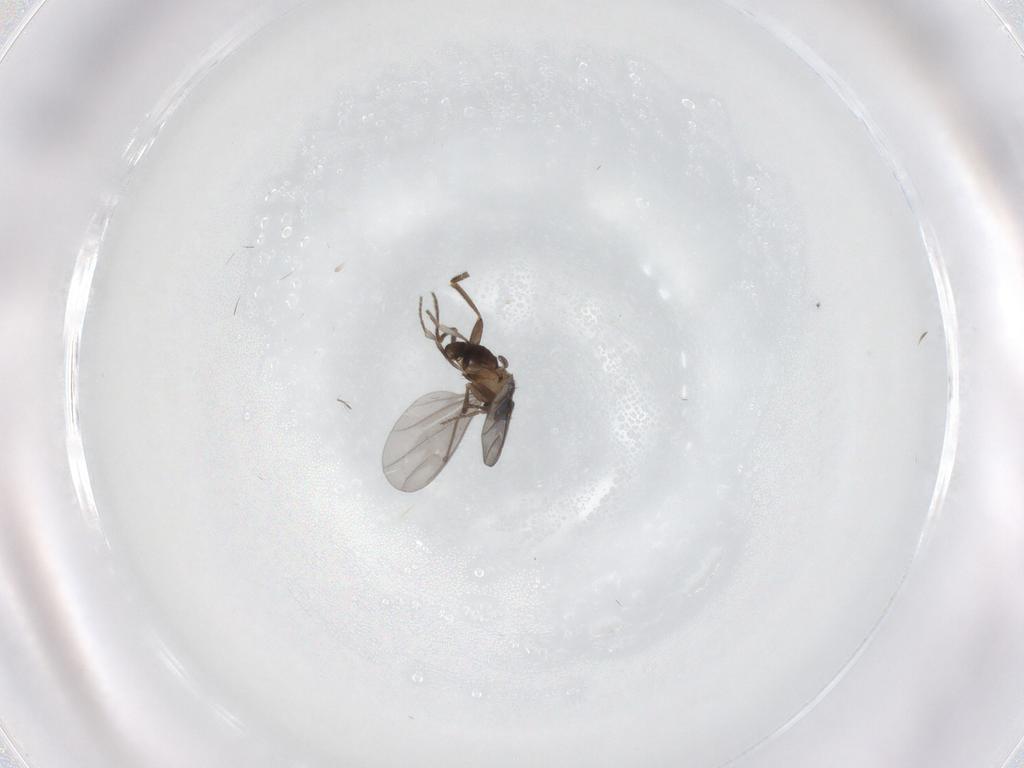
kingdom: Animalia
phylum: Arthropoda
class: Insecta
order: Diptera
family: Phoridae
